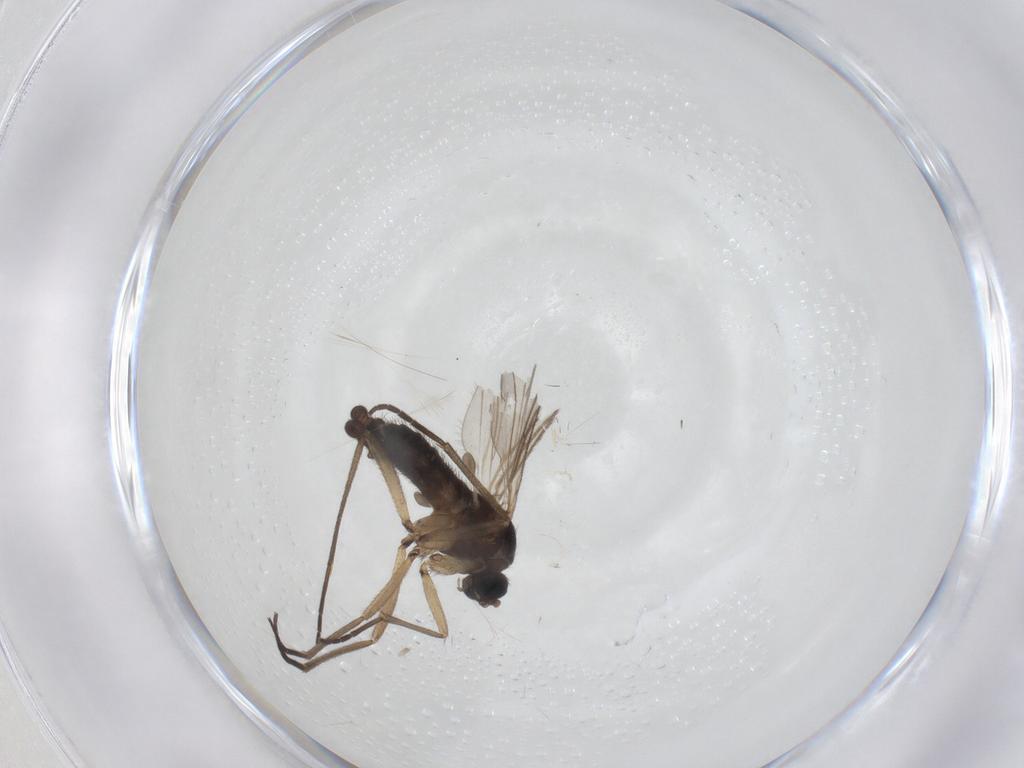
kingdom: Animalia
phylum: Arthropoda
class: Insecta
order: Diptera
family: Sciaridae
